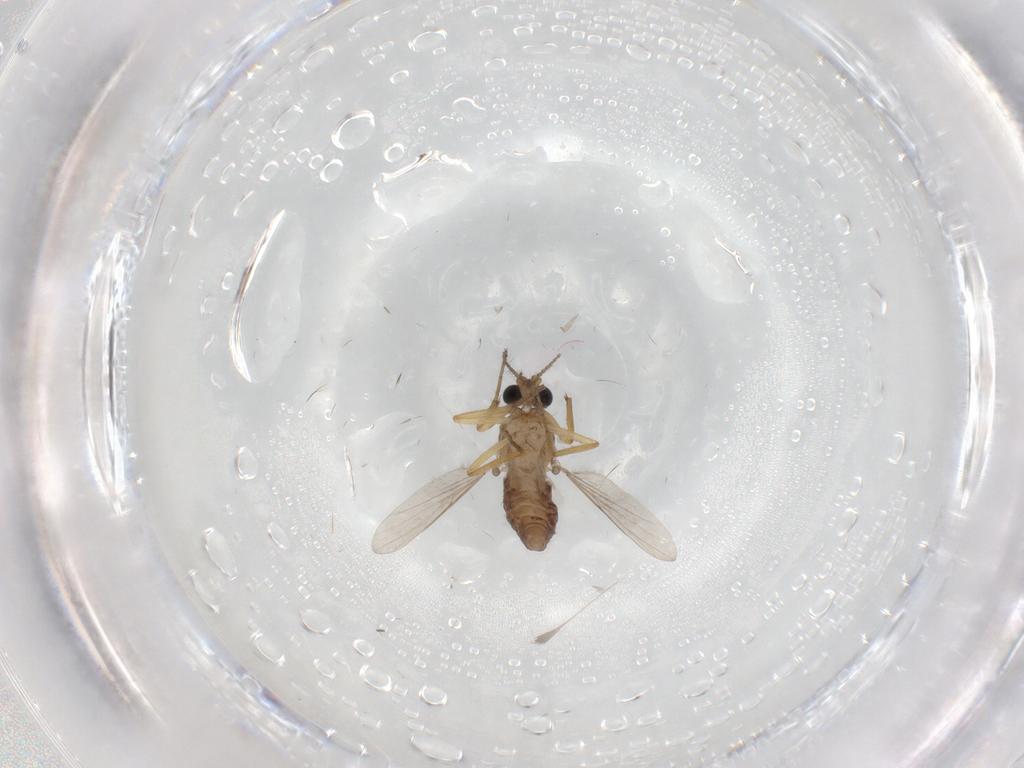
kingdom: Animalia
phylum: Arthropoda
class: Insecta
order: Diptera
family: Ceratopogonidae
